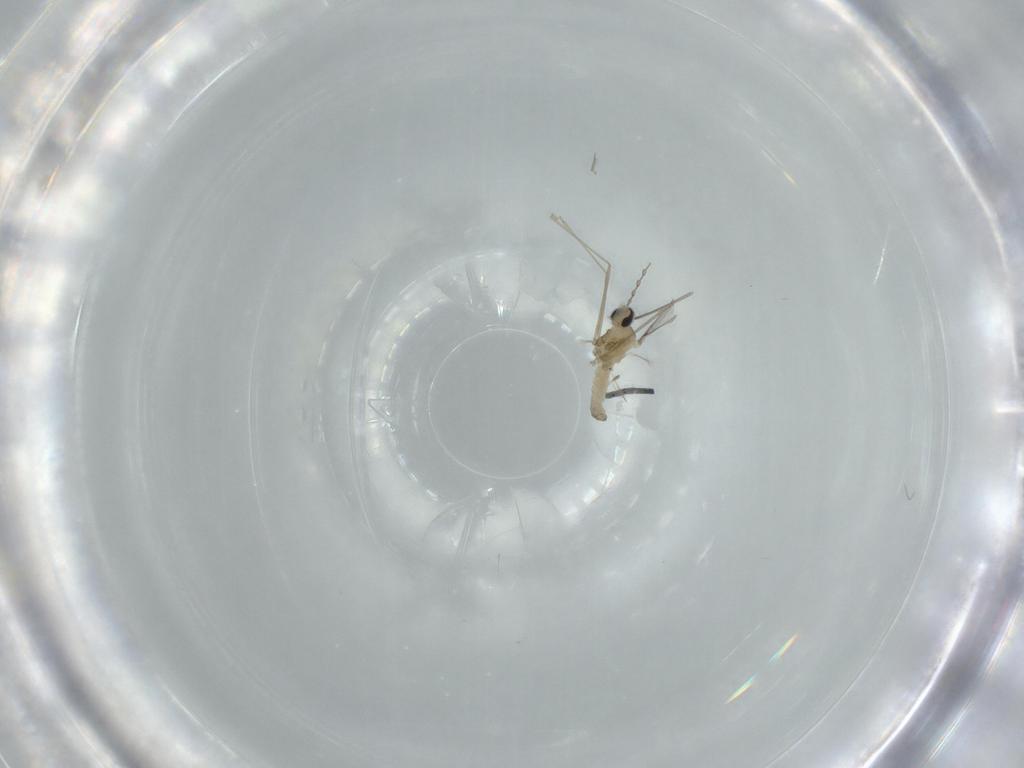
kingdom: Animalia
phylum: Arthropoda
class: Insecta
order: Diptera
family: Cecidomyiidae
